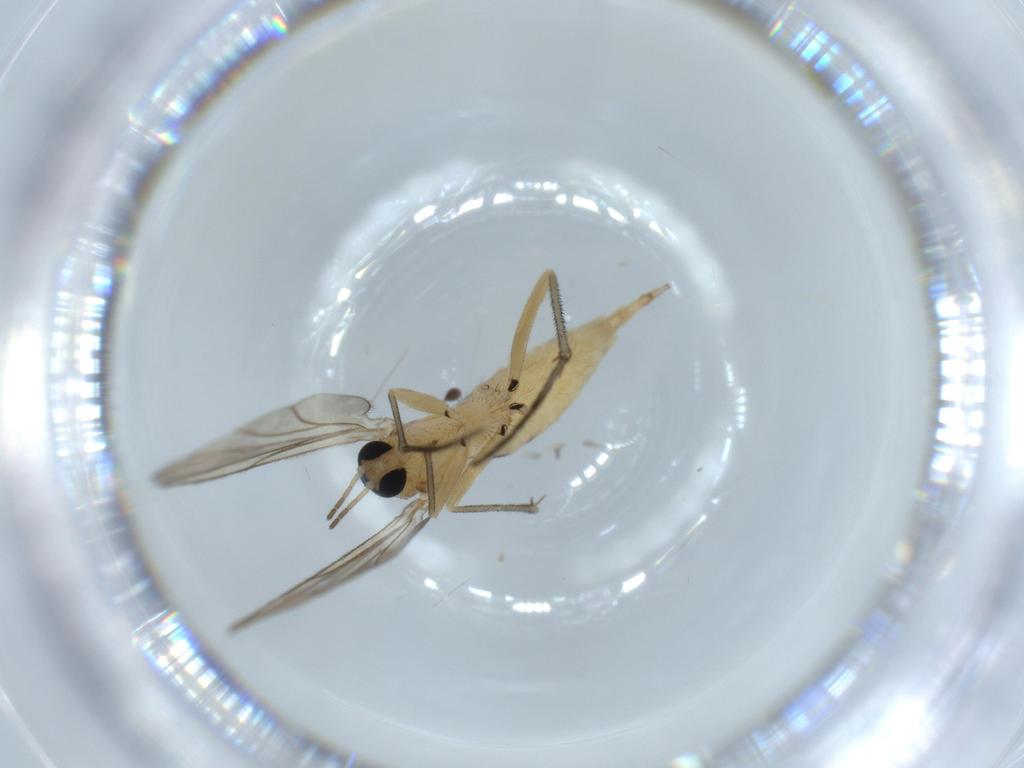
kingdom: Animalia
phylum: Arthropoda
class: Insecta
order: Diptera
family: Sciaridae
